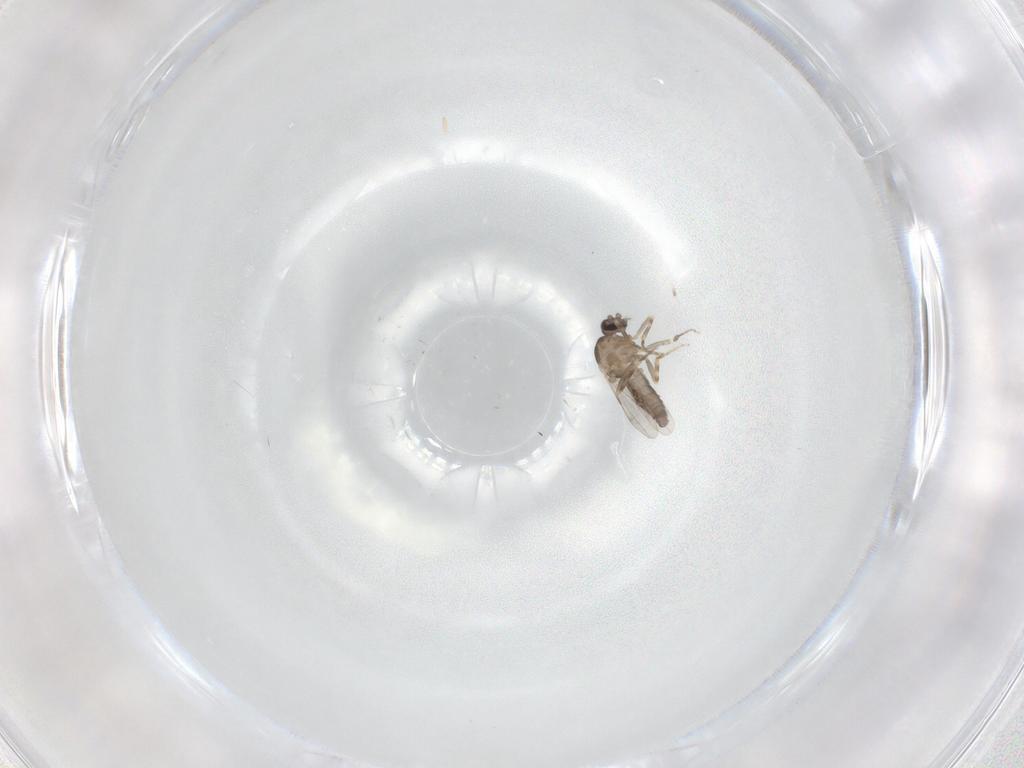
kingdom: Animalia
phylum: Arthropoda
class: Insecta
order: Diptera
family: Ceratopogonidae
